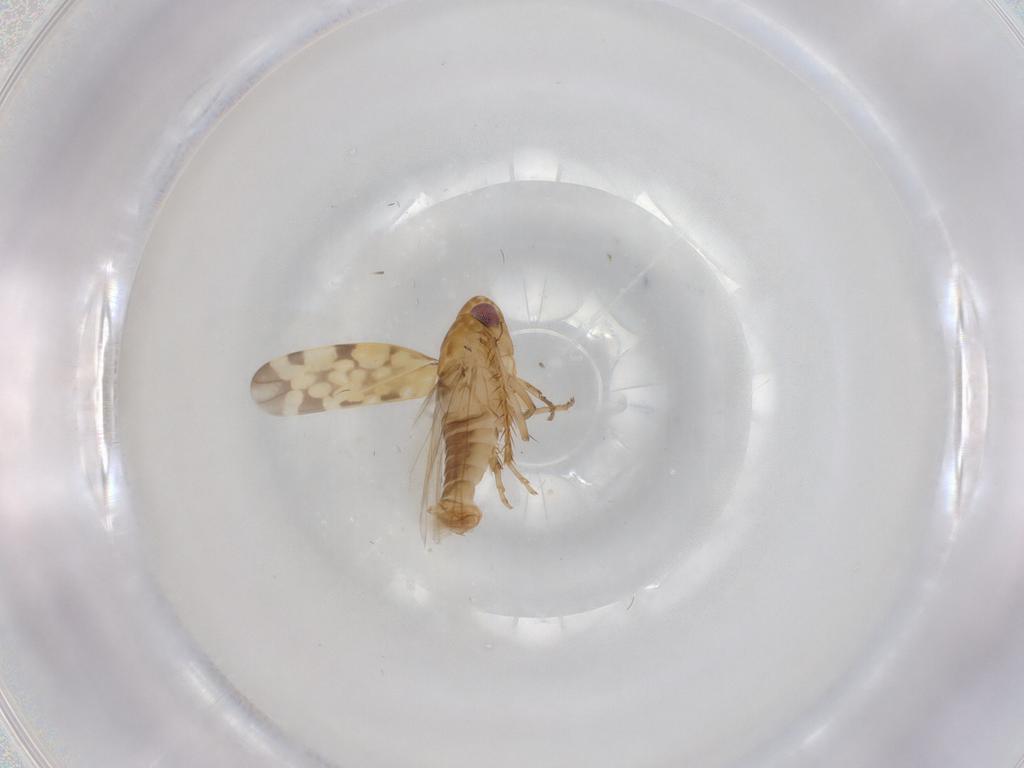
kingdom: Animalia
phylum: Arthropoda
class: Insecta
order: Hemiptera
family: Cicadellidae
